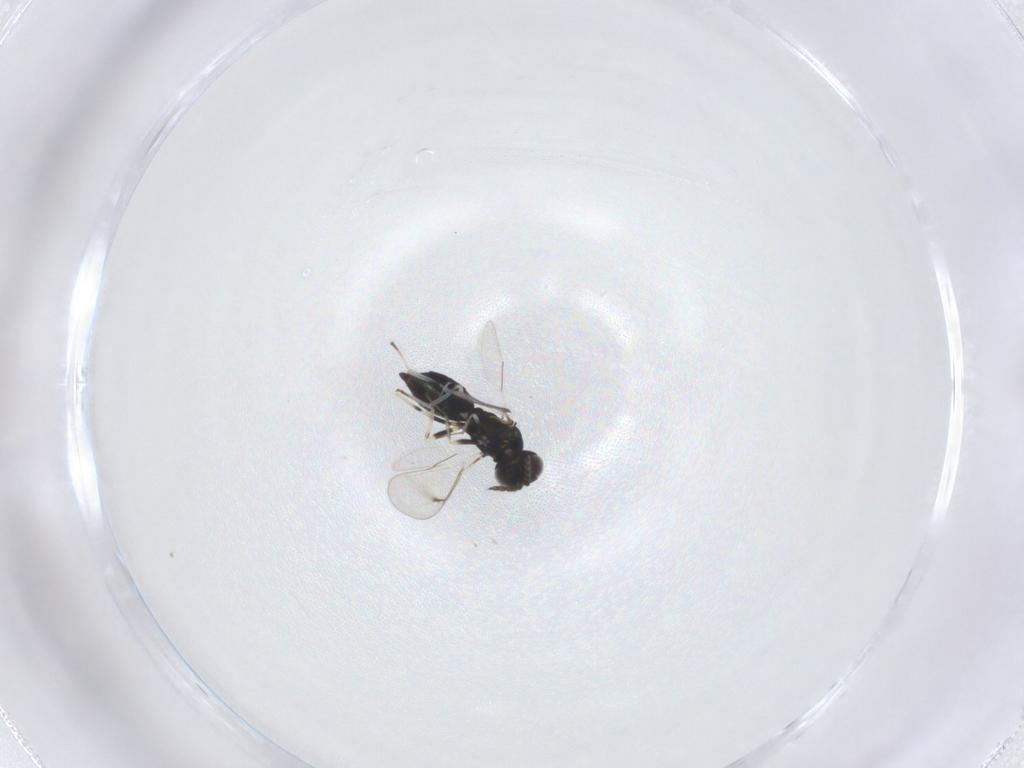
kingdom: Animalia
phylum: Arthropoda
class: Insecta
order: Hymenoptera
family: Eulophidae
